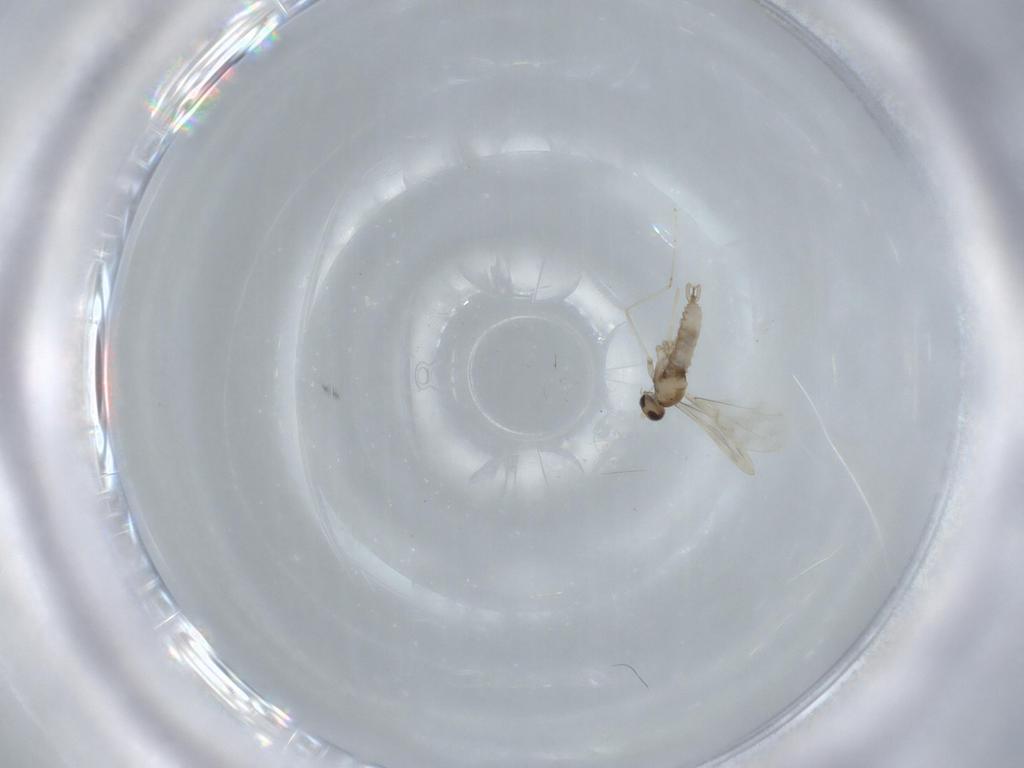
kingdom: Animalia
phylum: Arthropoda
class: Insecta
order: Diptera
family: Cecidomyiidae
